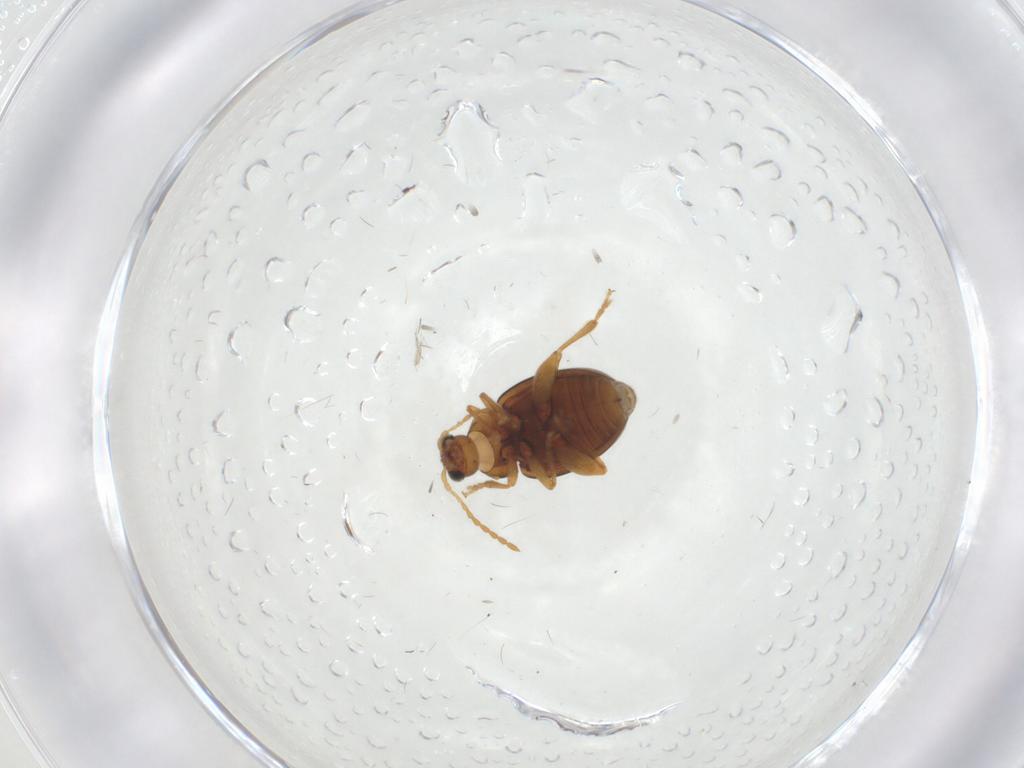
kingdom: Animalia
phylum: Arthropoda
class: Insecta
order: Coleoptera
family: Chrysomelidae
